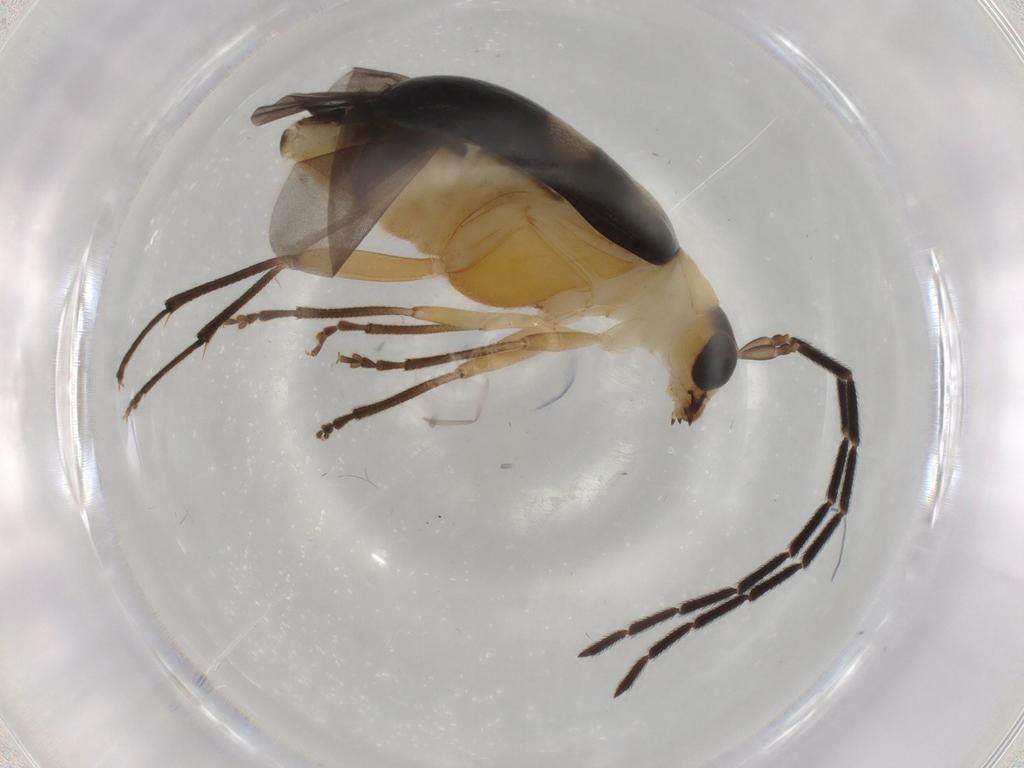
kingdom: Animalia
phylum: Arthropoda
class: Insecta
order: Coleoptera
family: Chrysomelidae
